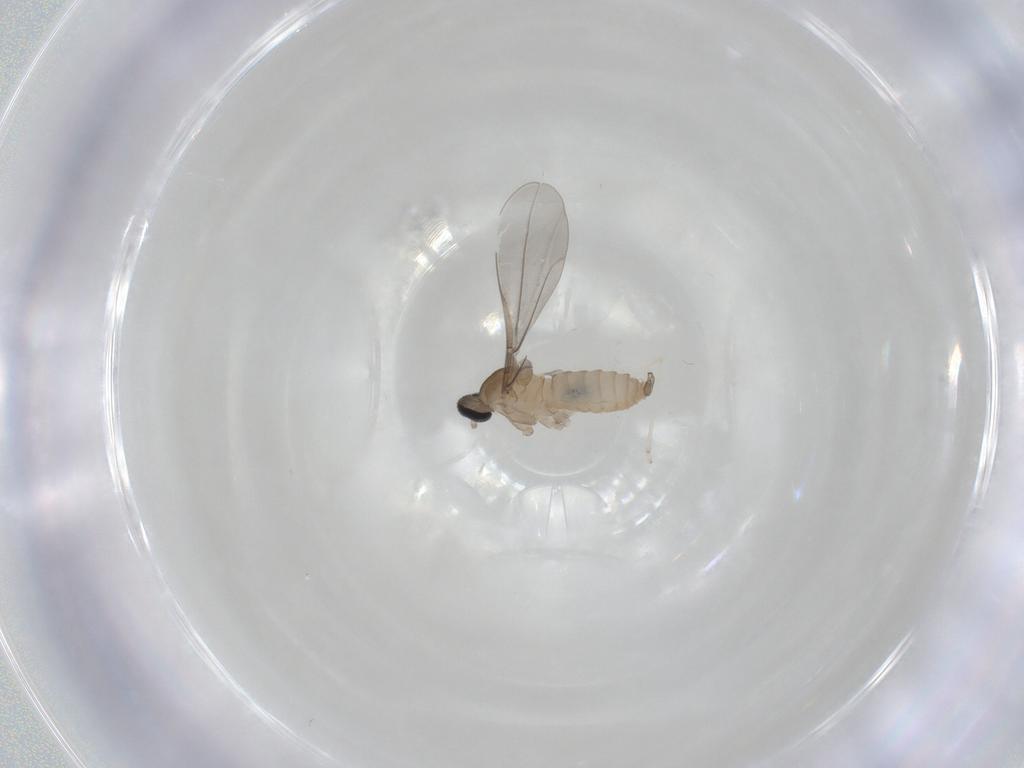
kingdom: Animalia
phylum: Arthropoda
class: Insecta
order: Diptera
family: Cecidomyiidae
